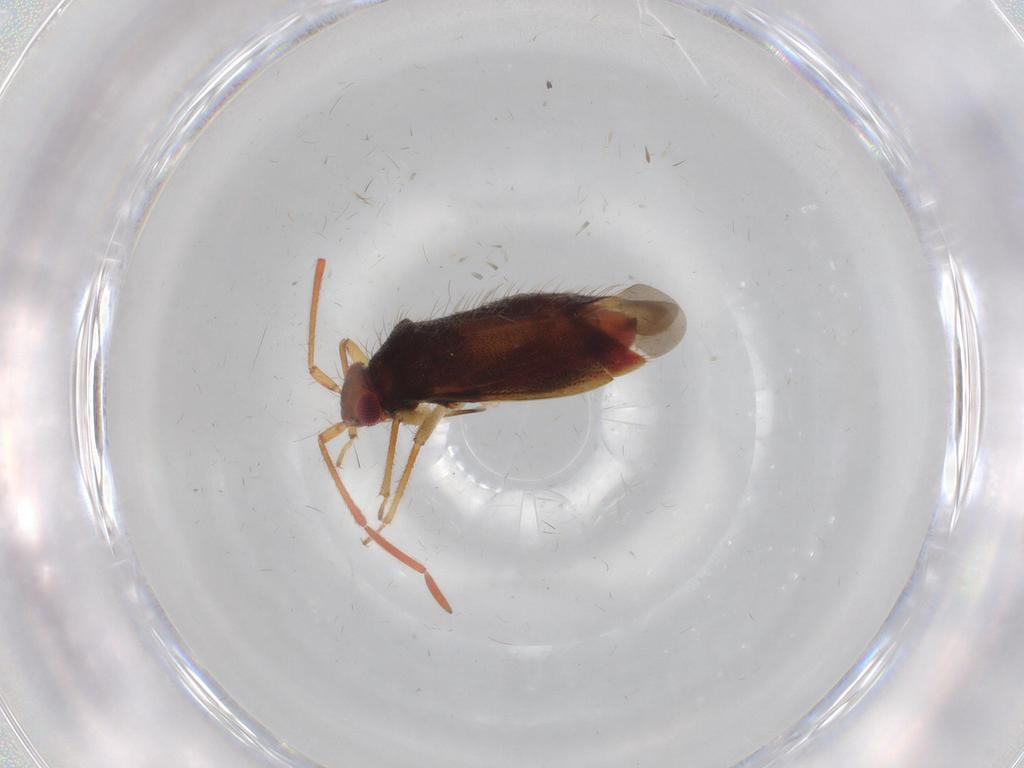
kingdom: Animalia
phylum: Arthropoda
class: Insecta
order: Hemiptera
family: Miridae
